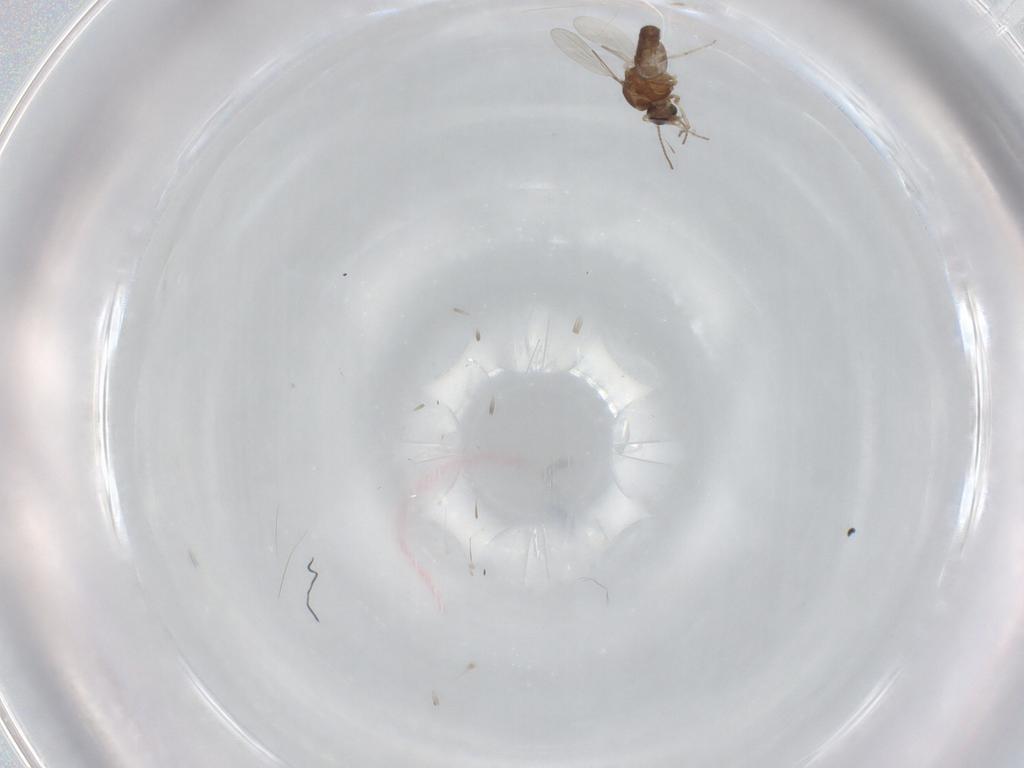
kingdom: Animalia
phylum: Arthropoda
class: Insecta
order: Diptera
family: Ceratopogonidae
